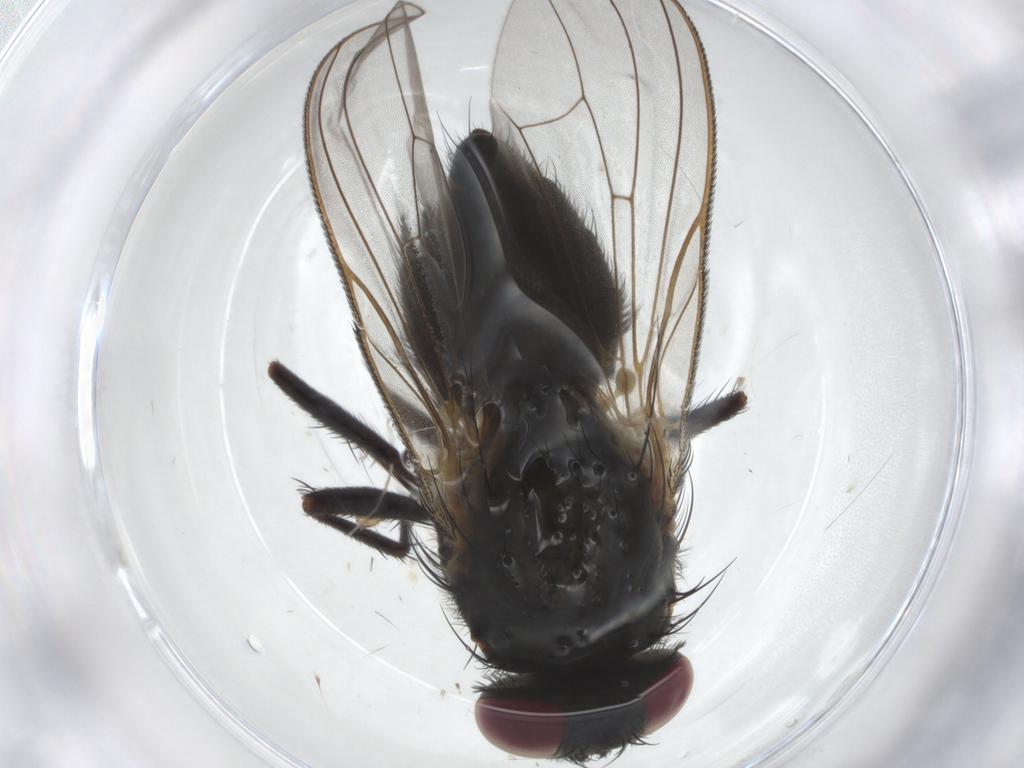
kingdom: Animalia
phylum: Arthropoda
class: Insecta
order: Diptera
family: Fannia
